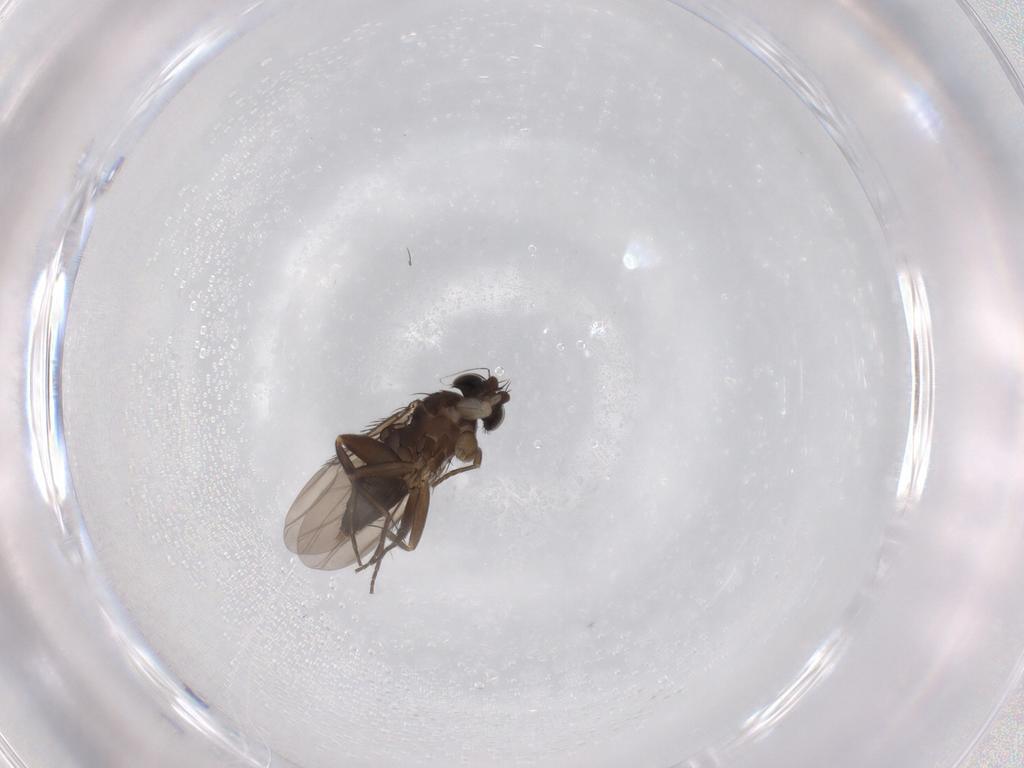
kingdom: Animalia
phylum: Arthropoda
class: Insecta
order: Diptera
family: Phoridae
